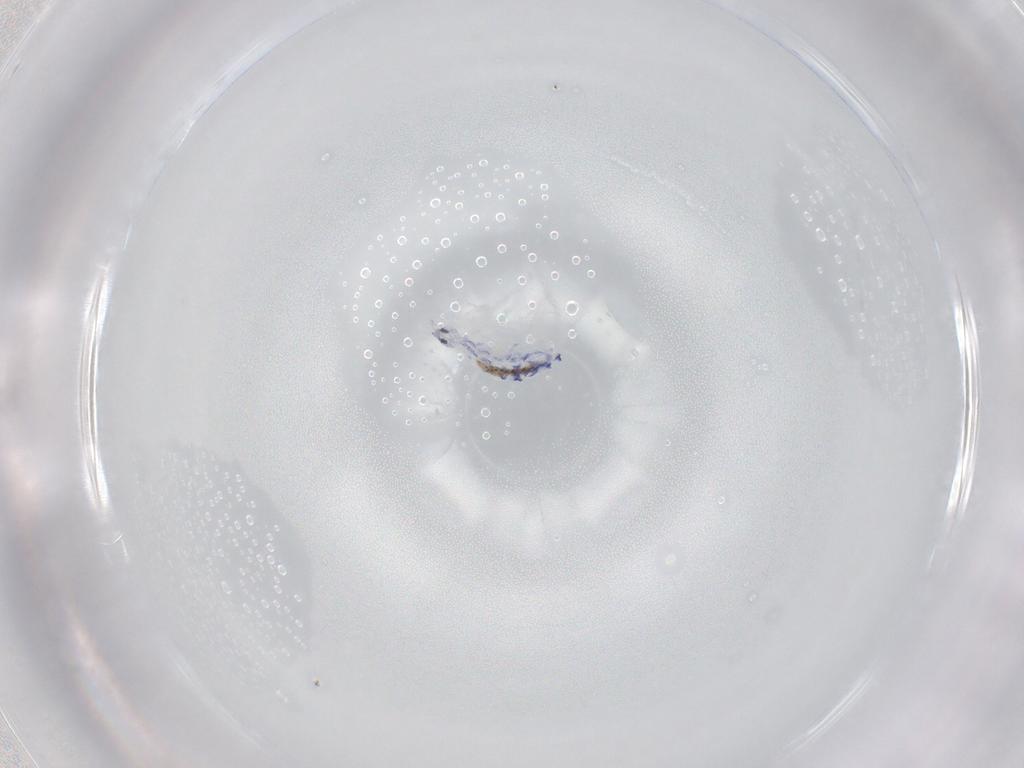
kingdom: Animalia
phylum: Arthropoda
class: Collembola
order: Entomobryomorpha
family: Entomobryidae
